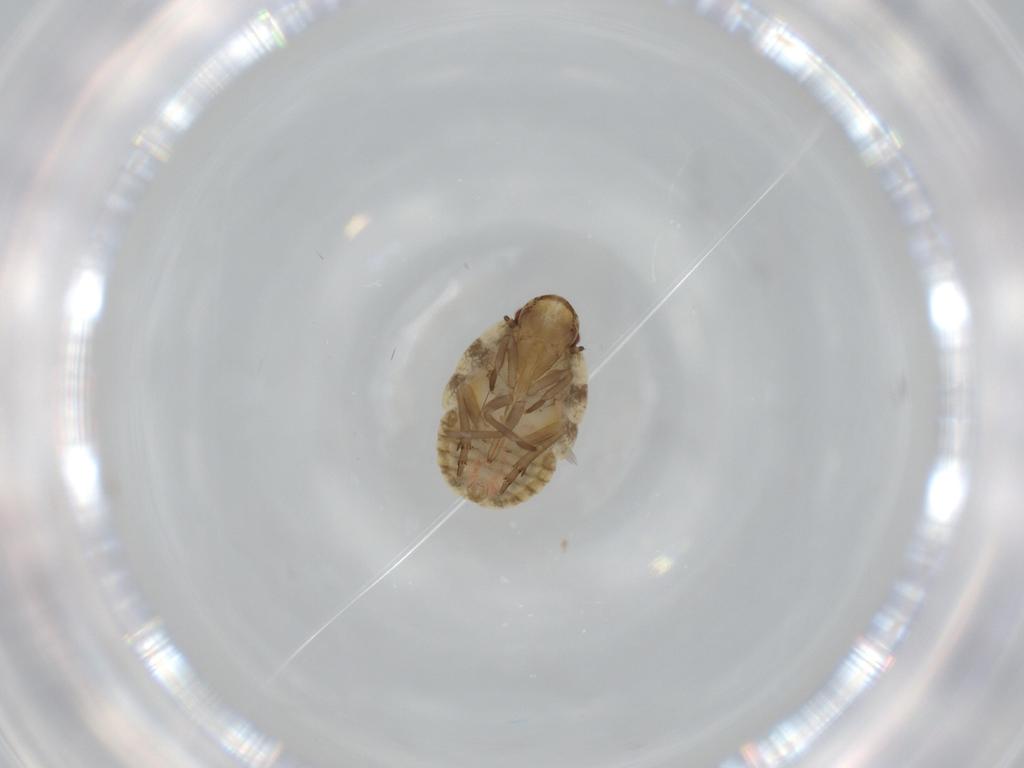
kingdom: Animalia
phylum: Arthropoda
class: Insecta
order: Hemiptera
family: Flatidae
